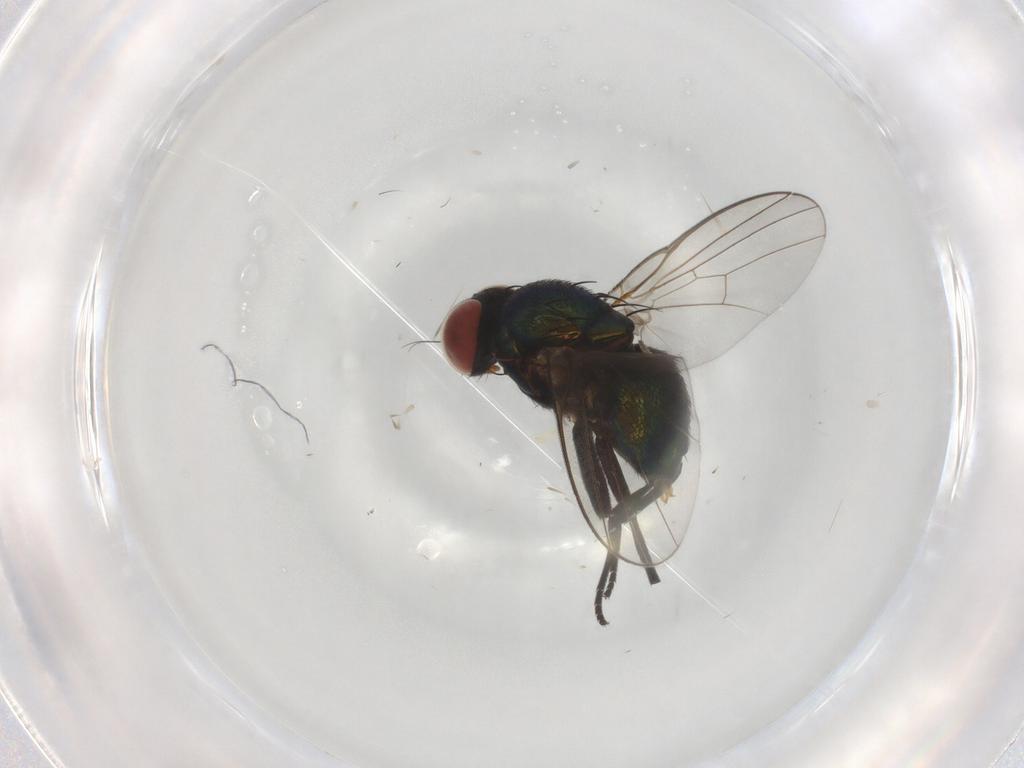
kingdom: Animalia
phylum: Arthropoda
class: Insecta
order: Diptera
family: Agromyzidae
